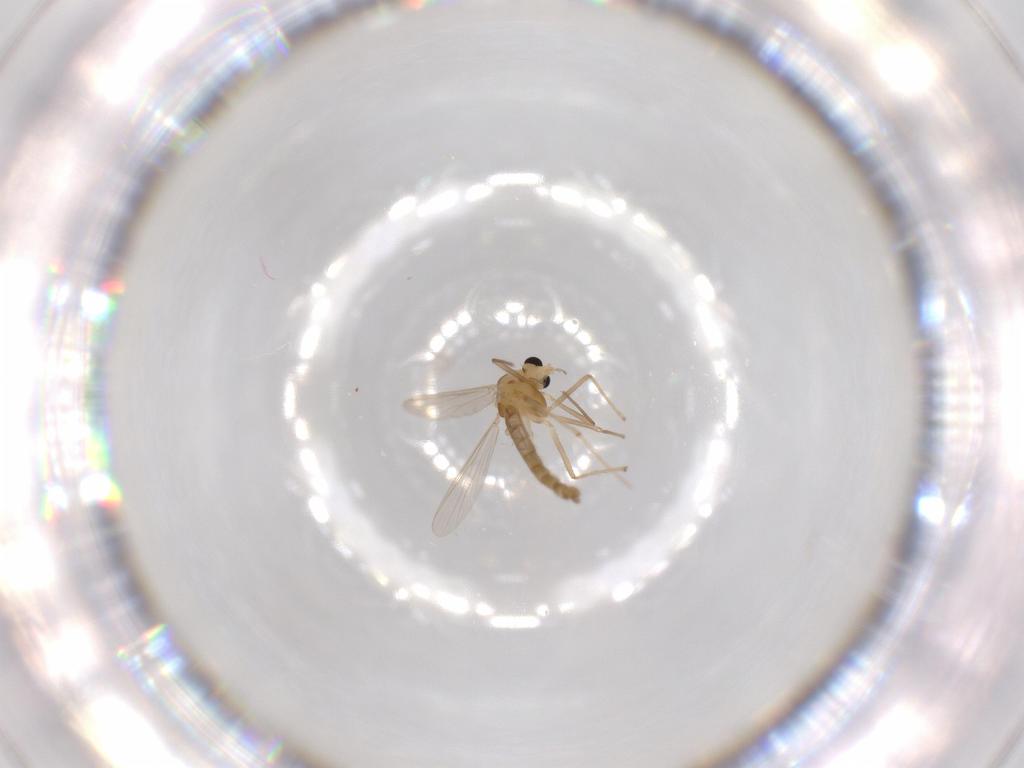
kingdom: Animalia
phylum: Arthropoda
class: Insecta
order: Diptera
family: Chironomidae
